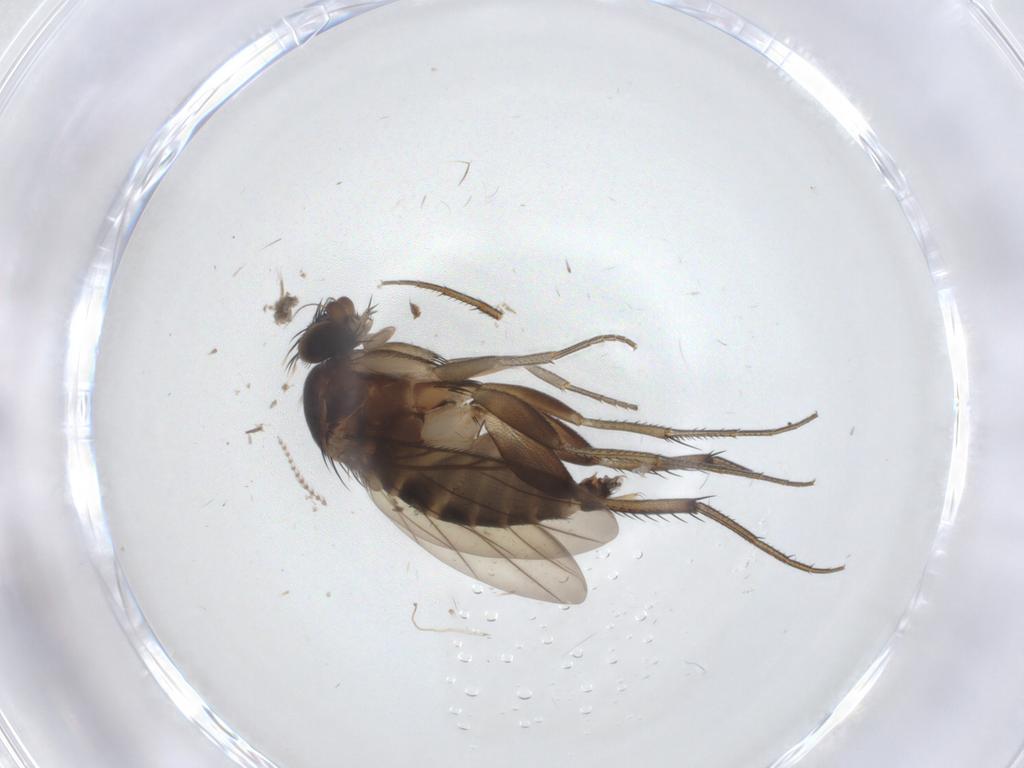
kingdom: Animalia
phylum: Arthropoda
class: Insecta
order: Diptera
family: Phoridae
